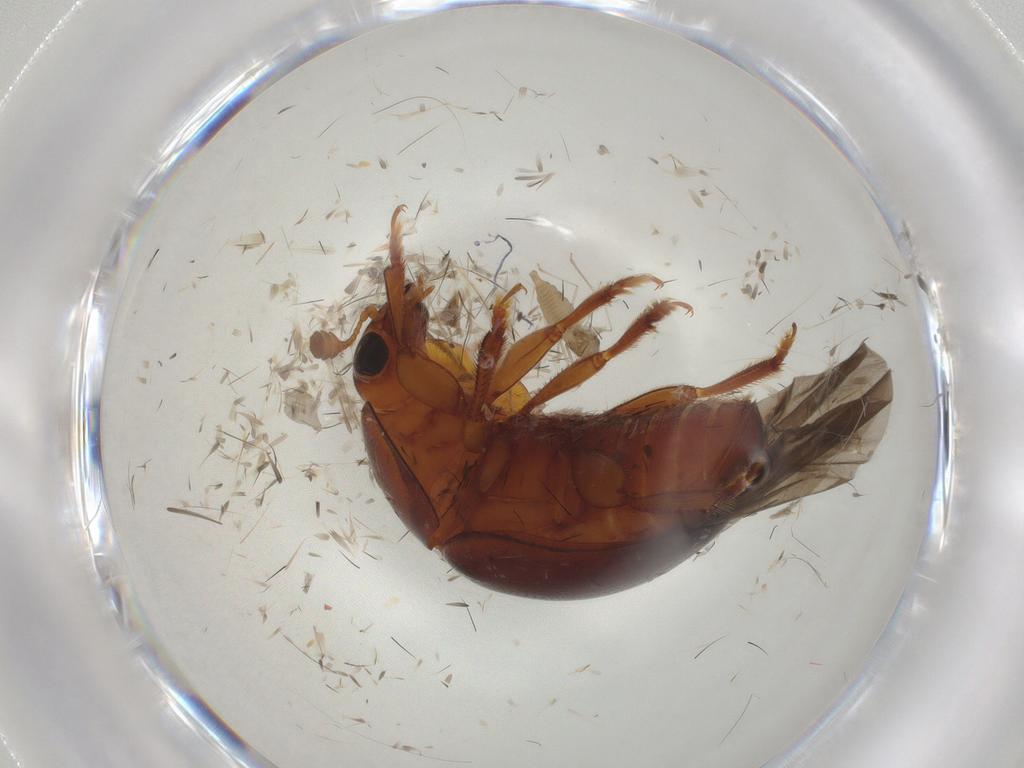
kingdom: Animalia
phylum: Arthropoda
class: Insecta
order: Coleoptera
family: Nitidulidae
